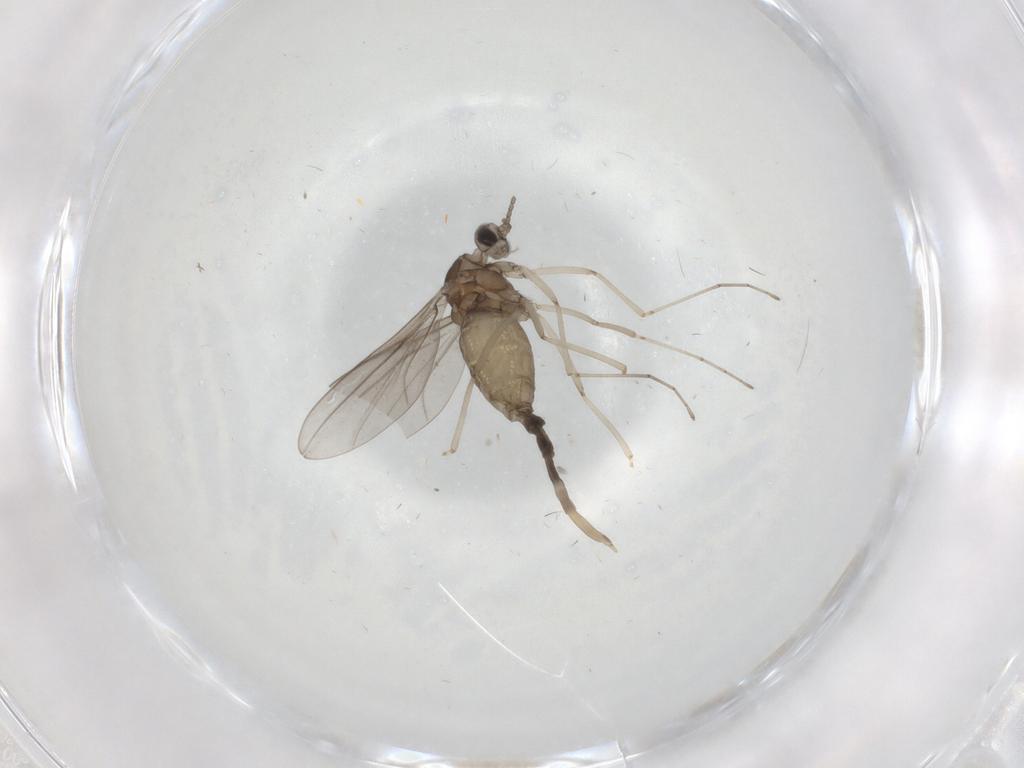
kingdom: Animalia
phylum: Arthropoda
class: Insecta
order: Diptera
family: Cecidomyiidae
